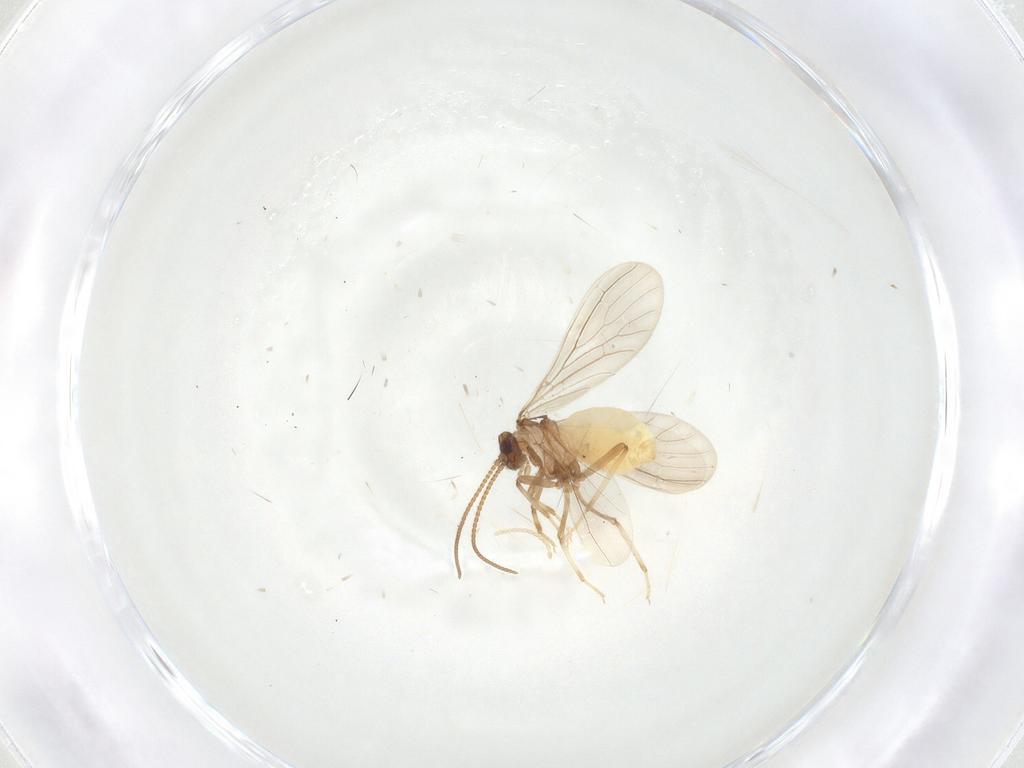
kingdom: Animalia
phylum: Arthropoda
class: Insecta
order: Neuroptera
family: Coniopterygidae
